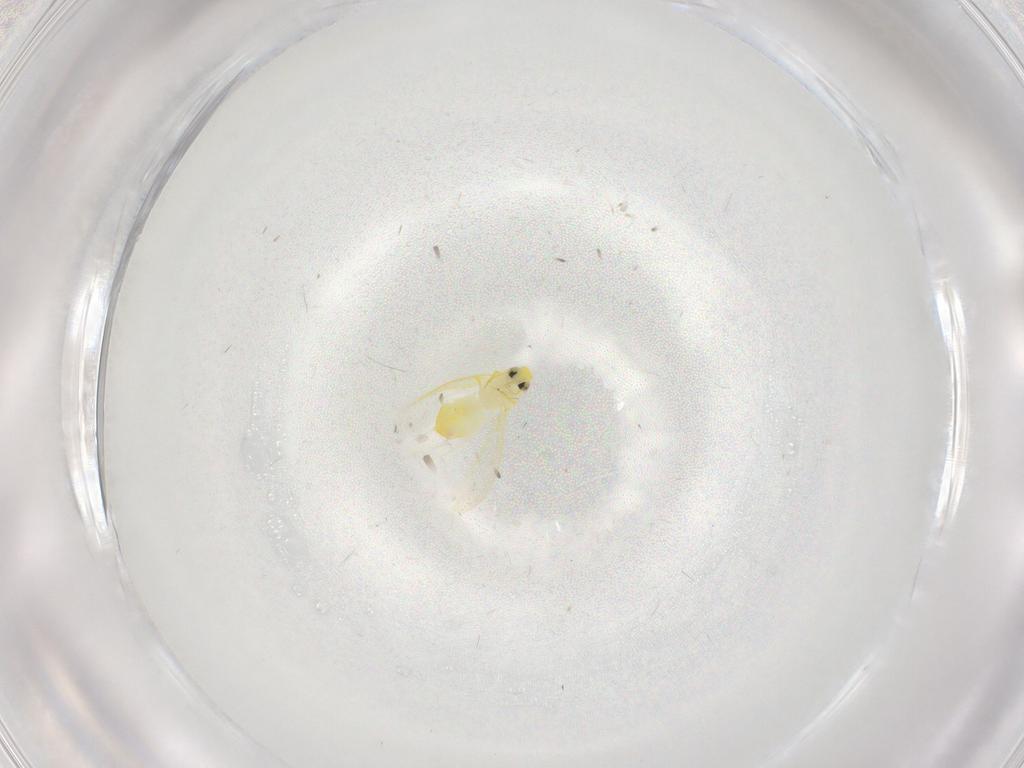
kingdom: Animalia
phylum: Arthropoda
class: Insecta
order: Hemiptera
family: Aleyrodidae
